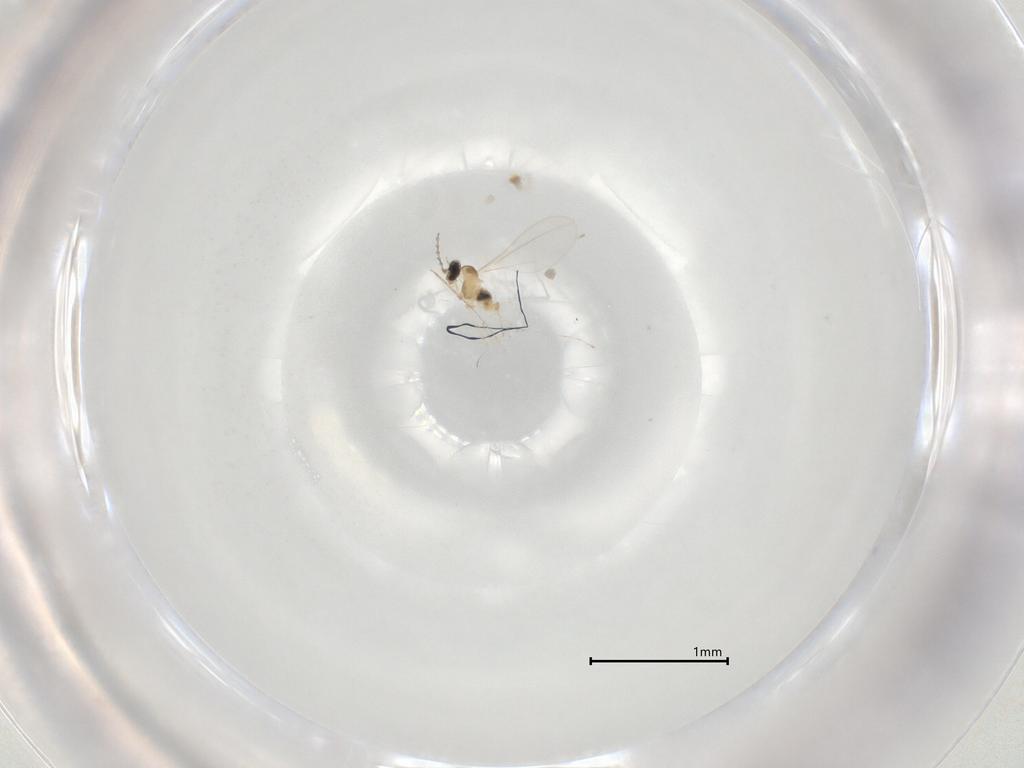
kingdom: Animalia
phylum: Arthropoda
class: Insecta
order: Diptera
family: Cecidomyiidae
